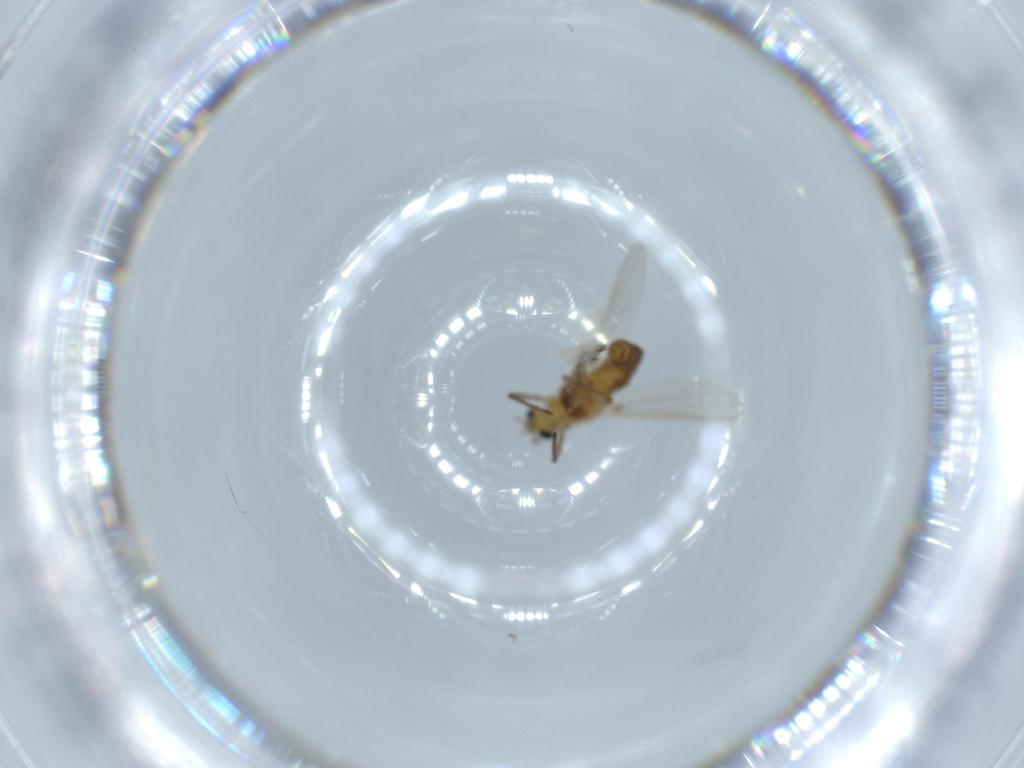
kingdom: Animalia
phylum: Arthropoda
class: Insecta
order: Diptera
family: Chironomidae
